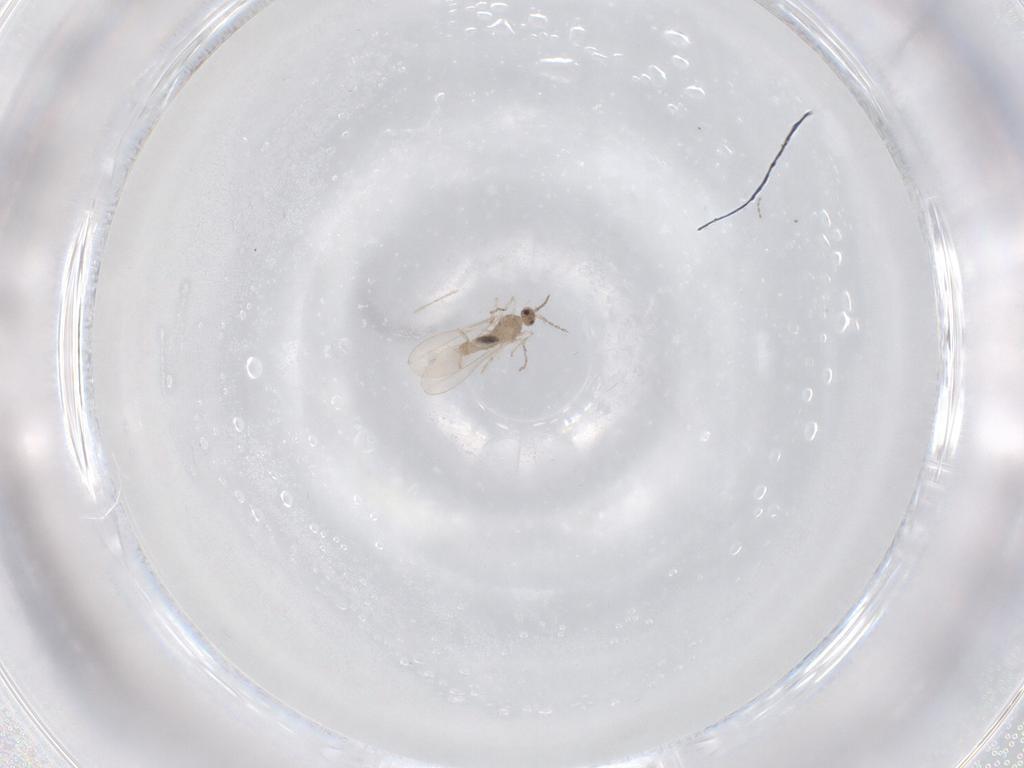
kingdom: Animalia
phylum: Arthropoda
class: Insecta
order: Diptera
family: Cecidomyiidae
